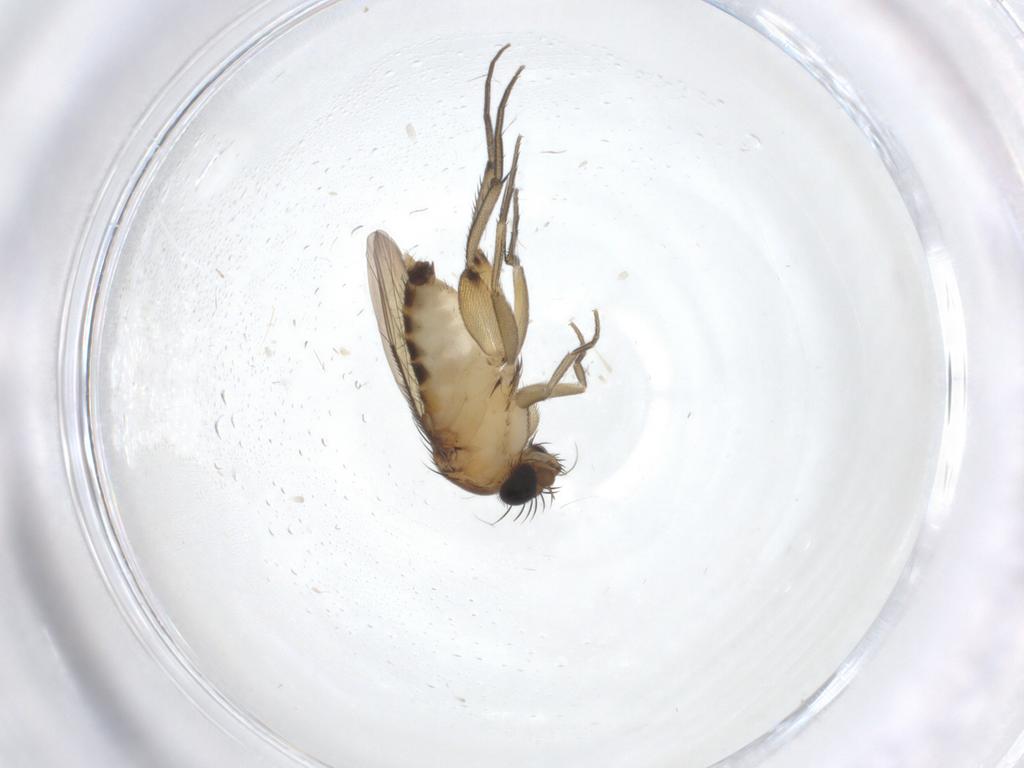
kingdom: Animalia
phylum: Arthropoda
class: Insecta
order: Diptera
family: Phoridae
